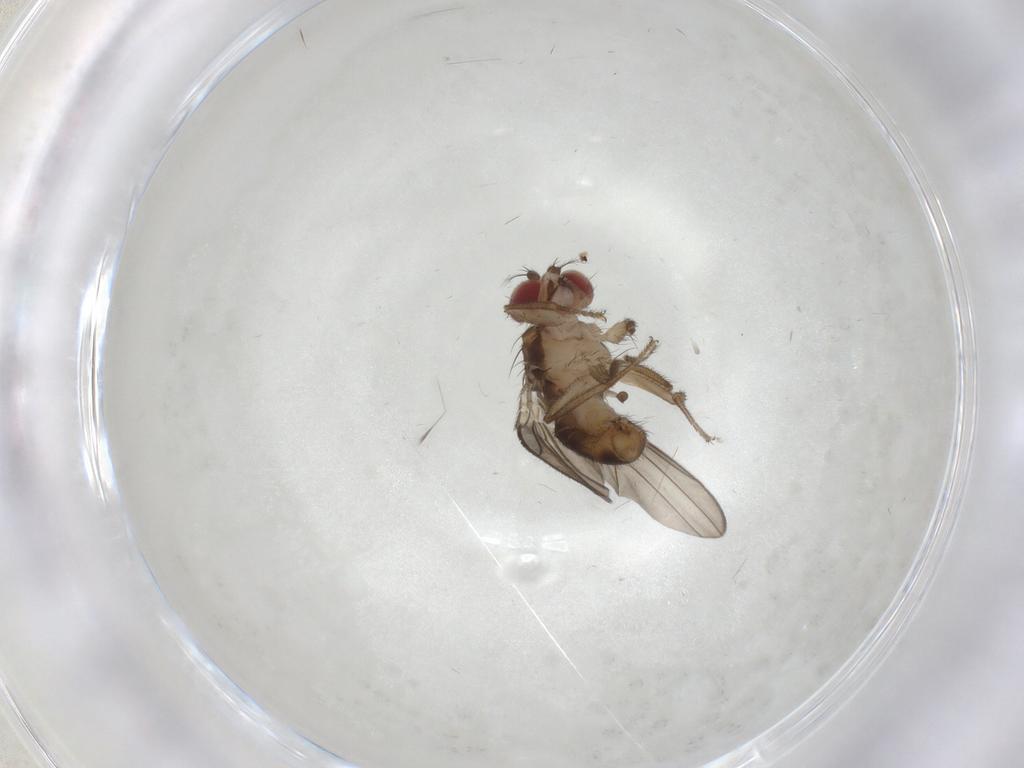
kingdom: Animalia
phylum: Arthropoda
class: Insecta
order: Diptera
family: Drosophilidae
